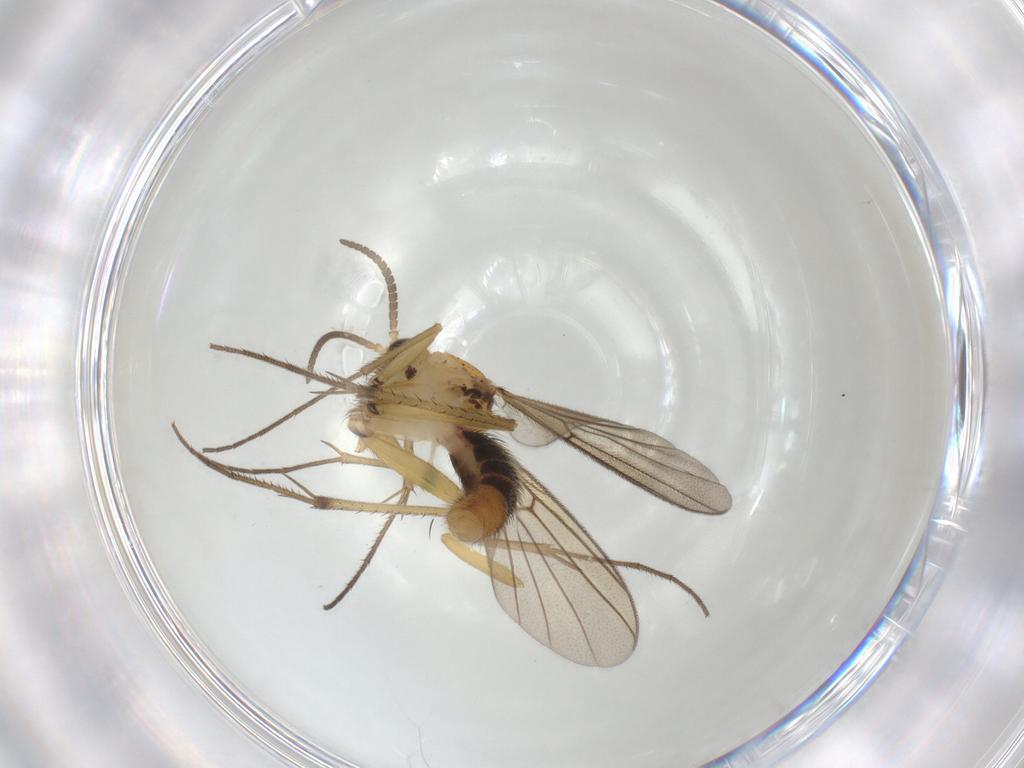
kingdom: Animalia
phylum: Arthropoda
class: Insecta
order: Diptera
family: Mycetophilidae
